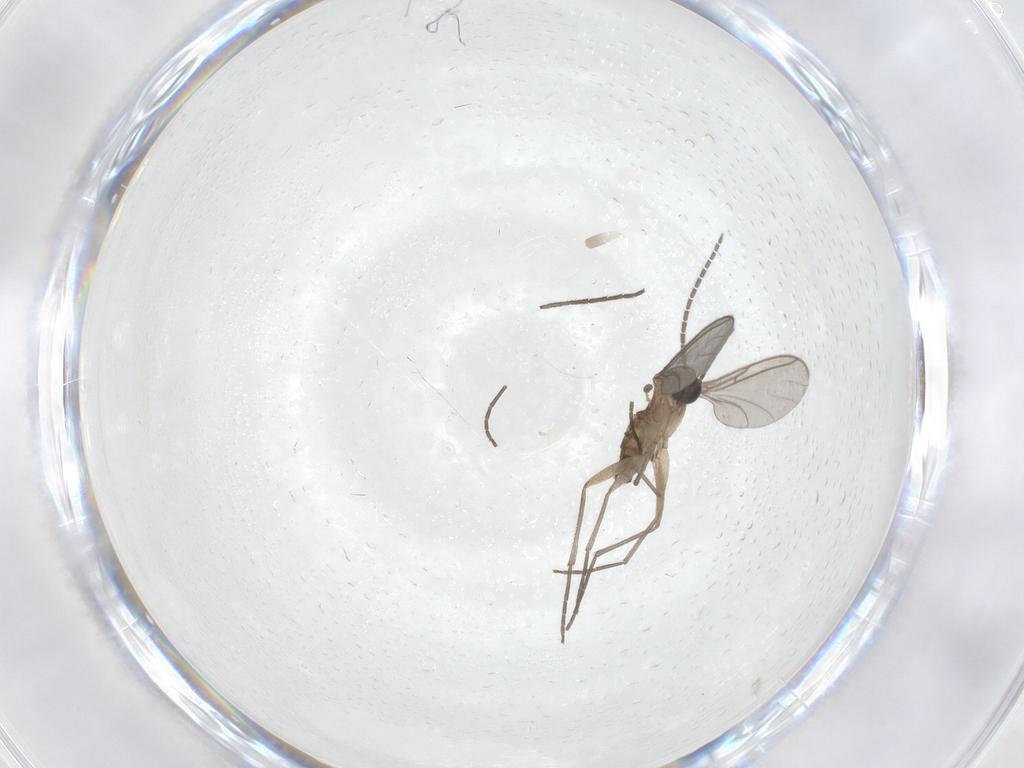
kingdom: Animalia
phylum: Arthropoda
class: Insecta
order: Diptera
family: Sciaridae
